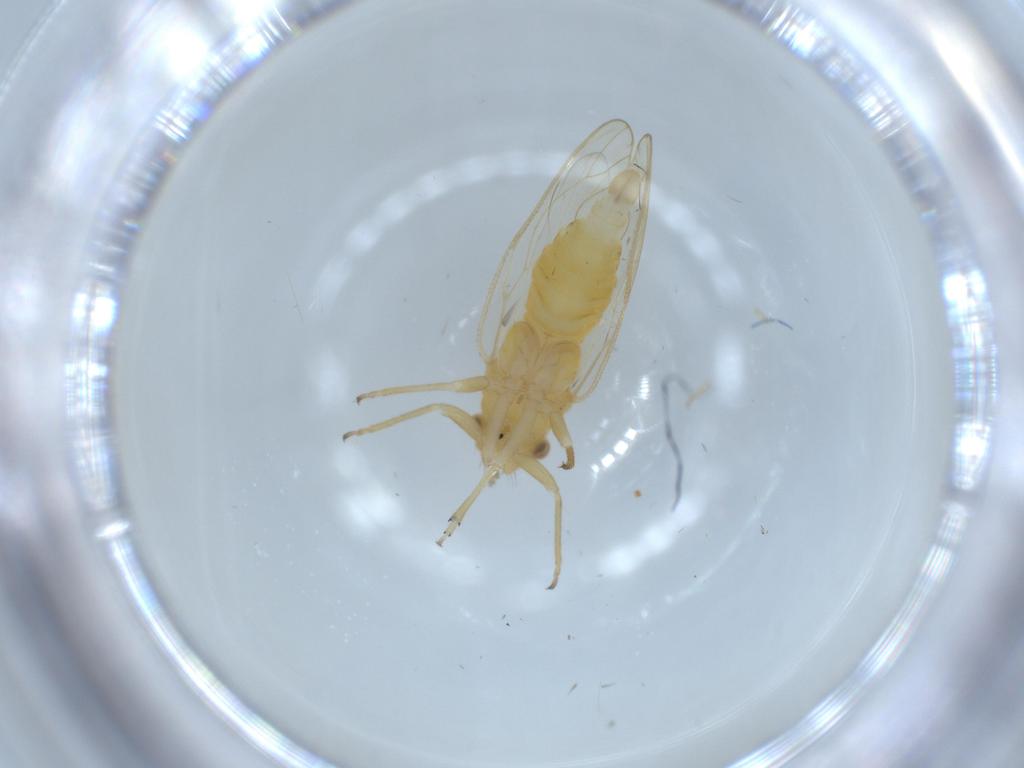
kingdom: Animalia
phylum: Arthropoda
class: Insecta
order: Hemiptera
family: Psyllidae
